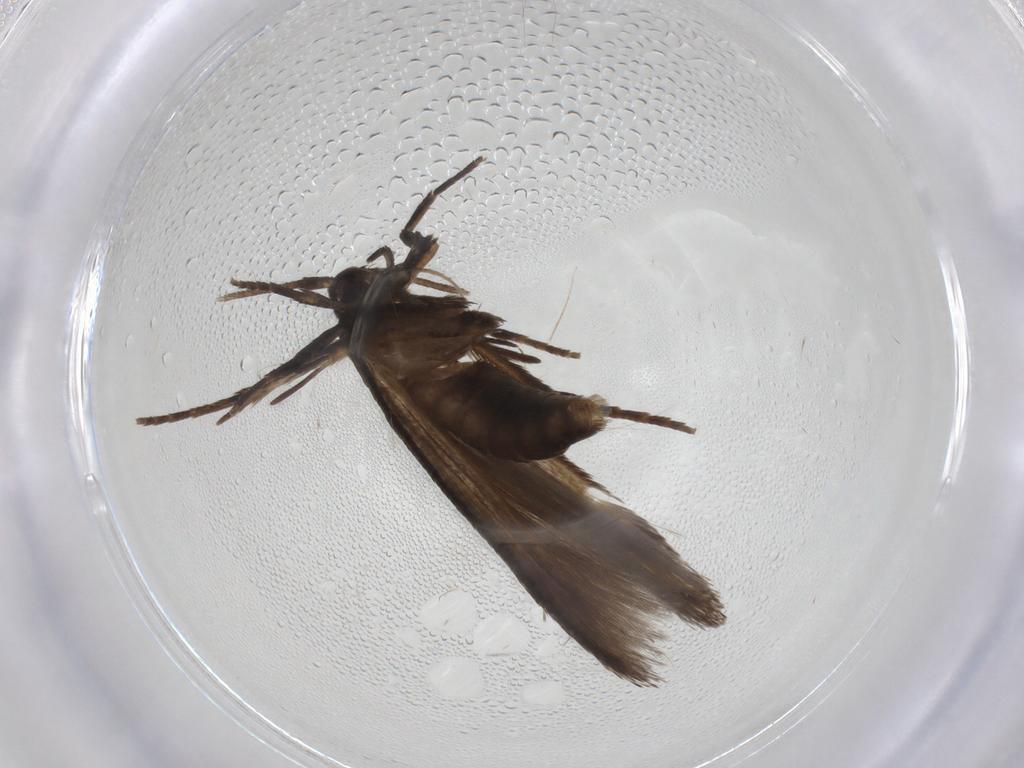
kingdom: Animalia
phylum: Arthropoda
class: Insecta
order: Lepidoptera
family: Cosmopterigidae
